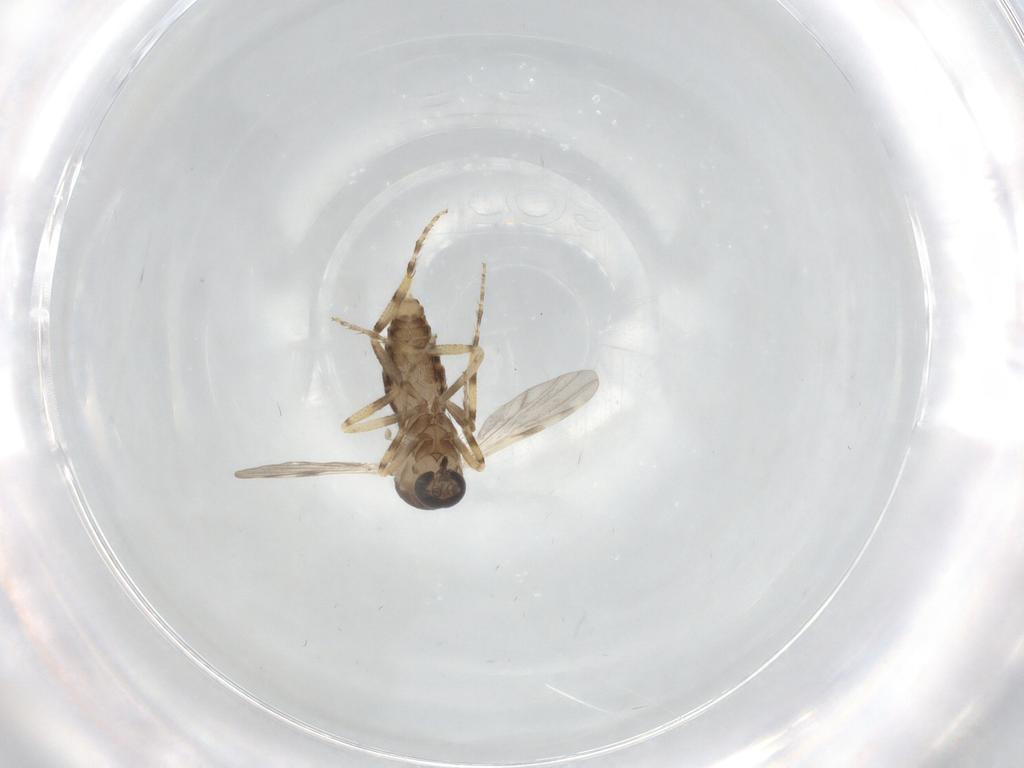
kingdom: Animalia
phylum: Arthropoda
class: Insecta
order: Diptera
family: Ceratopogonidae
